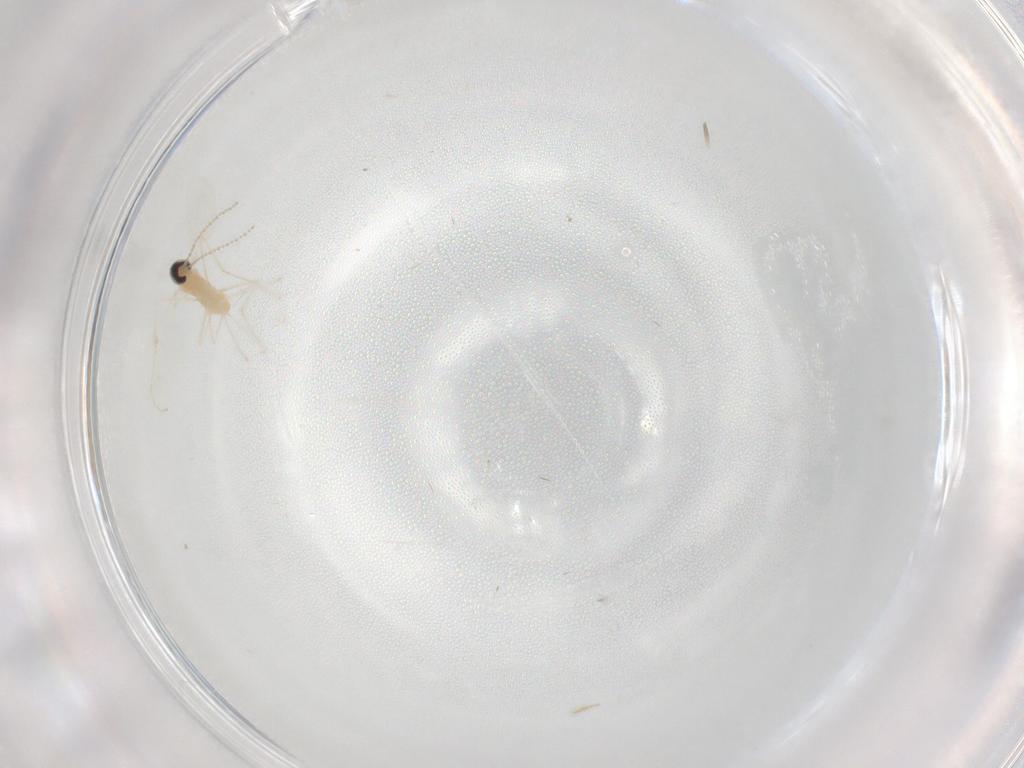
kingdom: Animalia
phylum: Arthropoda
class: Insecta
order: Diptera
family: Cecidomyiidae
